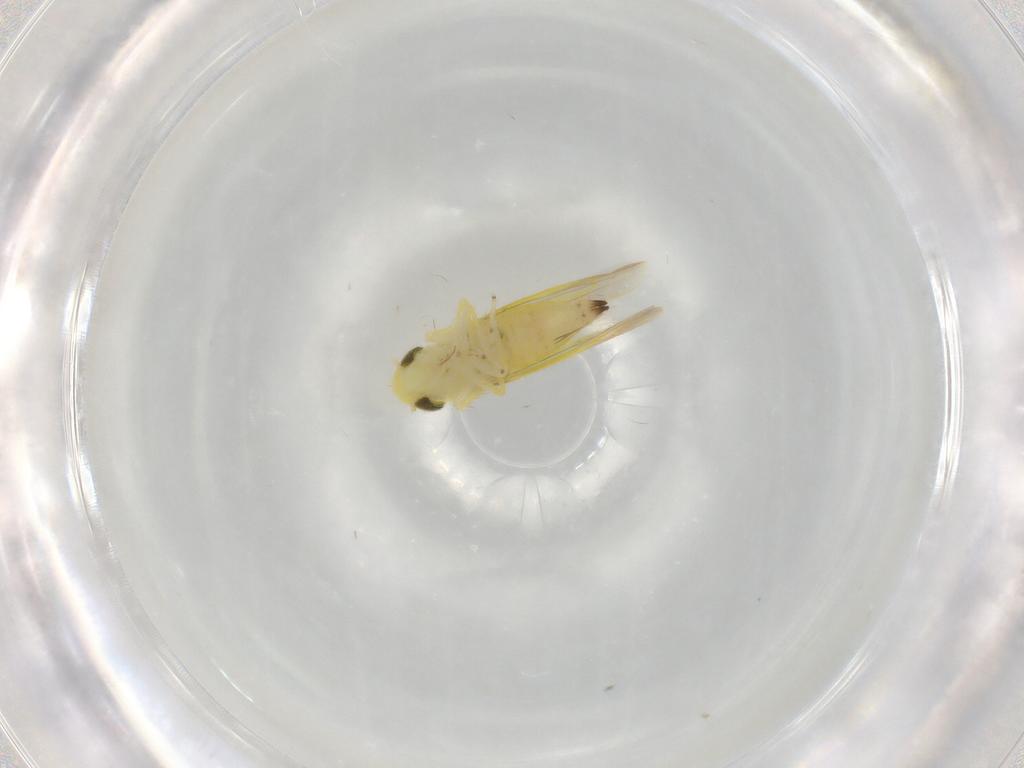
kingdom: Animalia
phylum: Arthropoda
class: Insecta
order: Hemiptera
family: Cicadellidae
